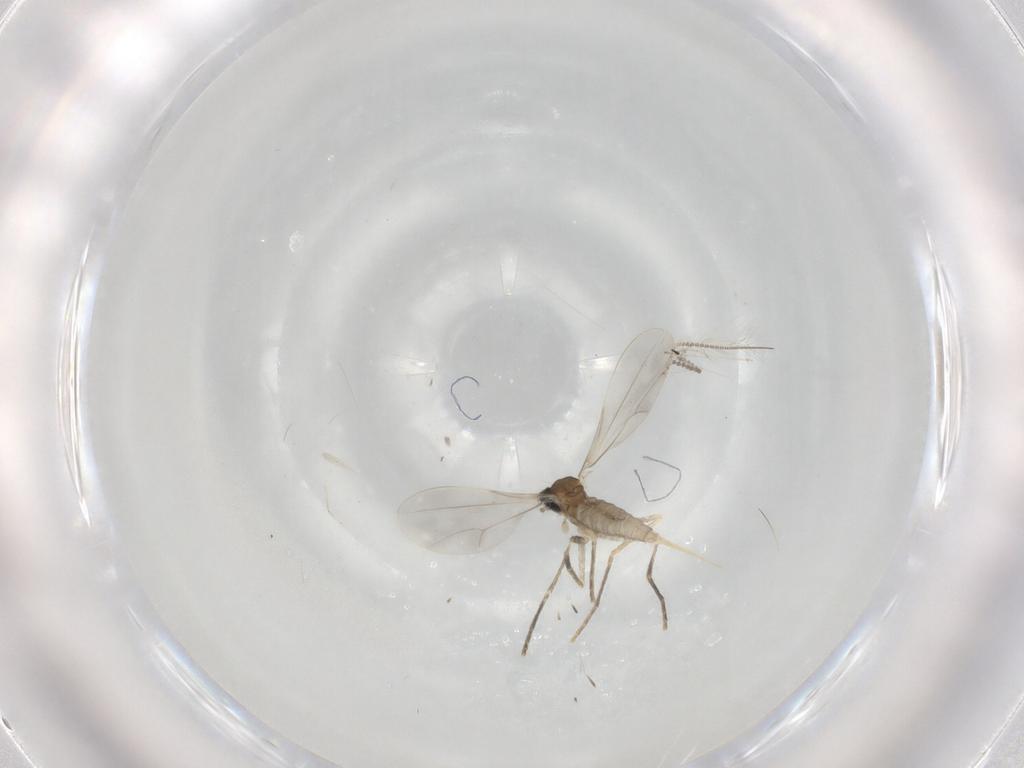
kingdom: Animalia
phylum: Arthropoda
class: Insecta
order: Diptera
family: Cecidomyiidae
